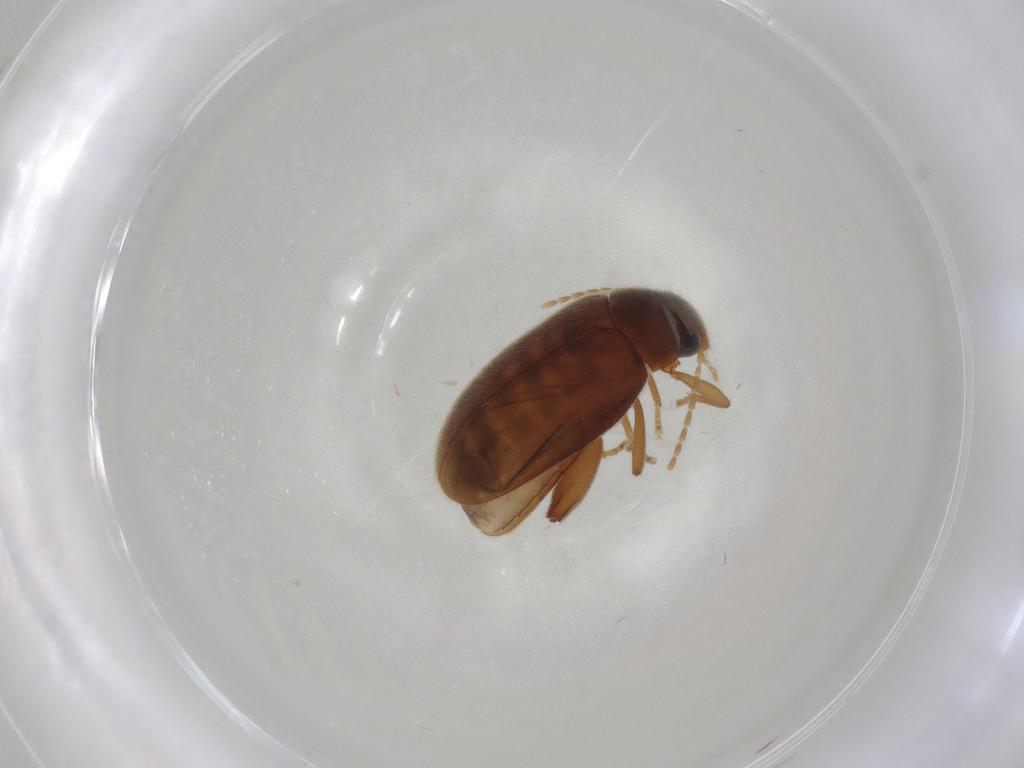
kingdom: Animalia
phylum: Arthropoda
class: Insecta
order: Coleoptera
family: Scirtidae
